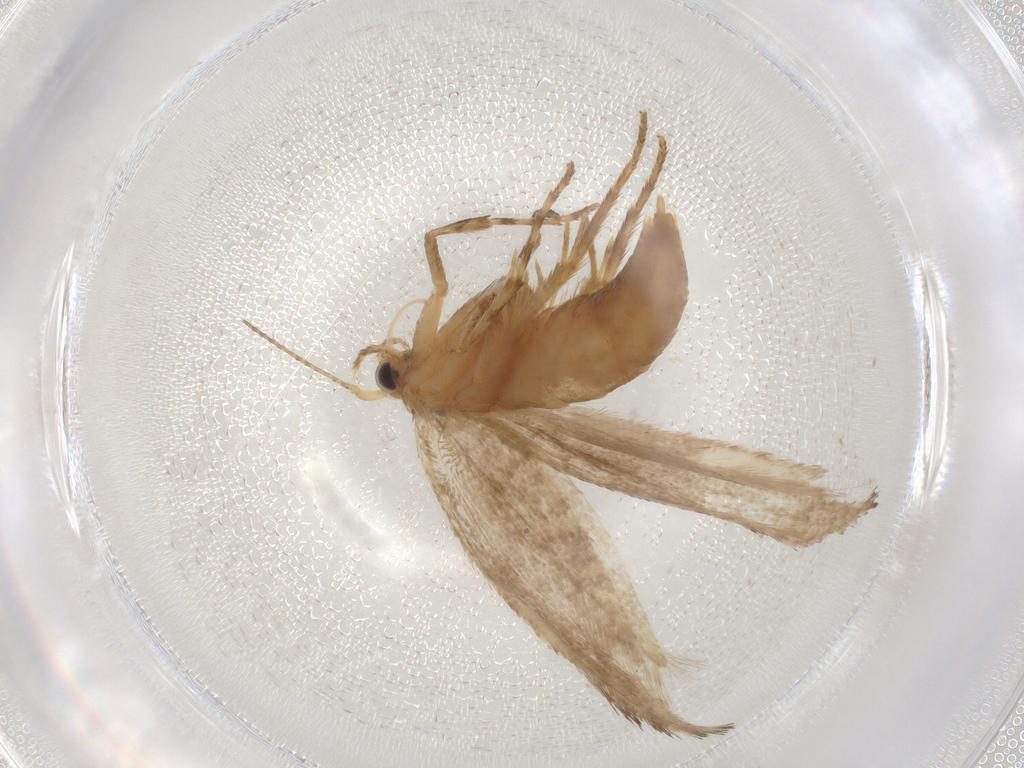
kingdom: Animalia
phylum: Arthropoda
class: Insecta
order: Lepidoptera
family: Argyresthiidae
